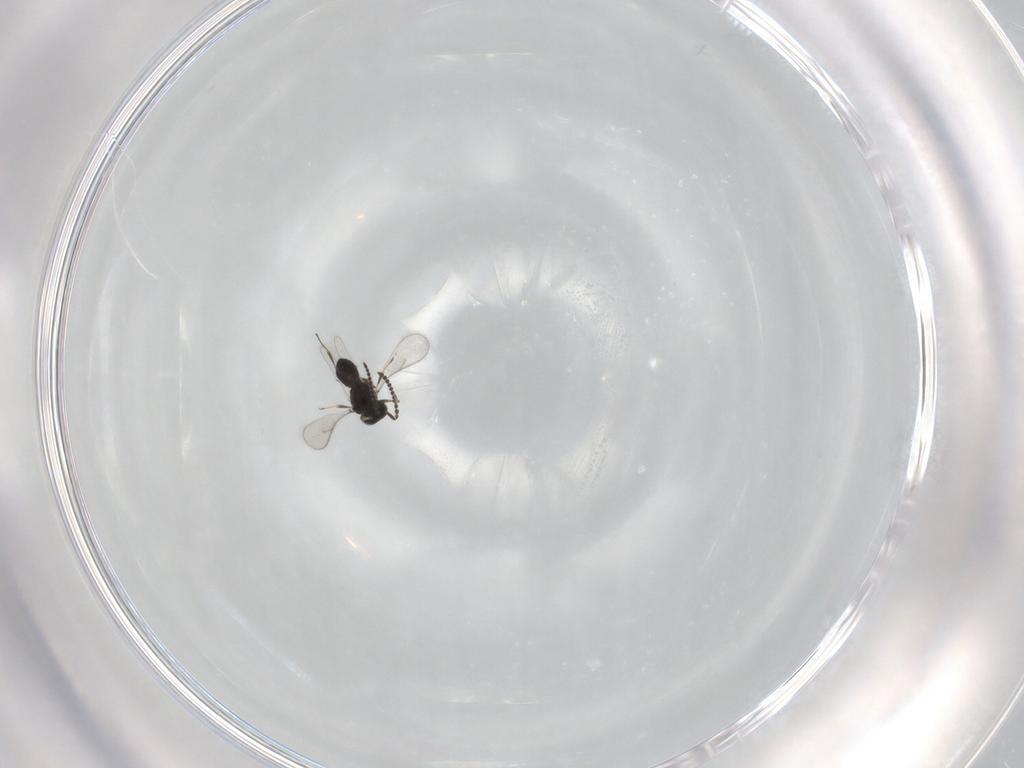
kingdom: Animalia
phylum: Arthropoda
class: Insecta
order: Hymenoptera
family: Scelionidae
